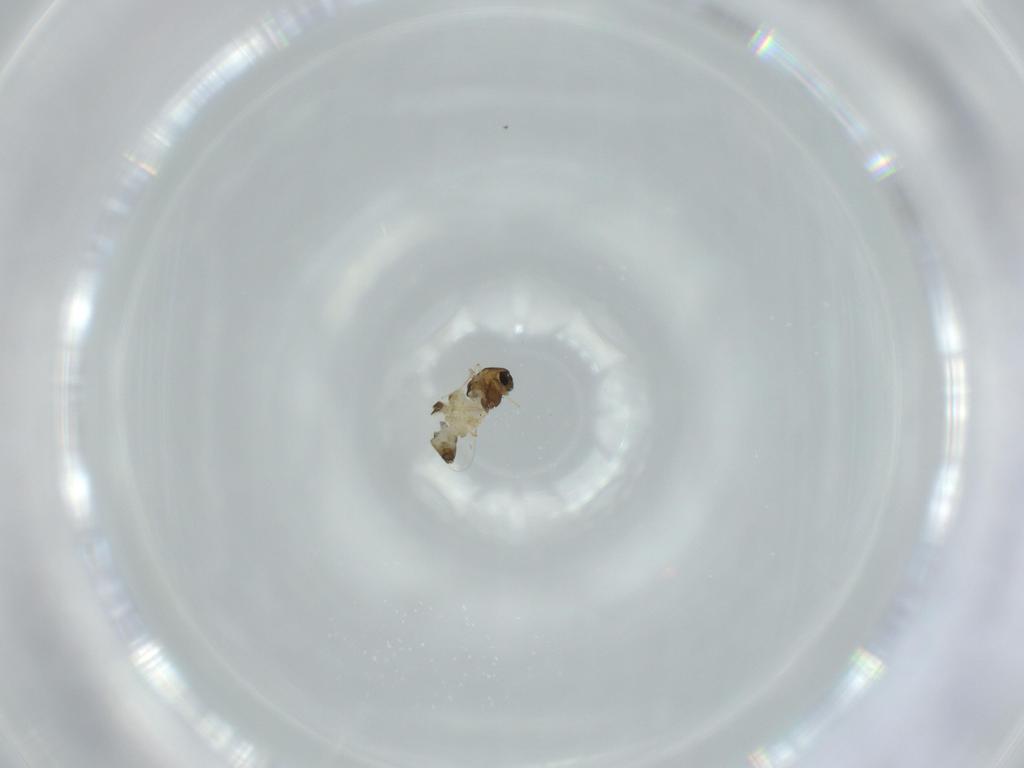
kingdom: Animalia
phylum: Arthropoda
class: Insecta
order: Diptera
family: Chironomidae
